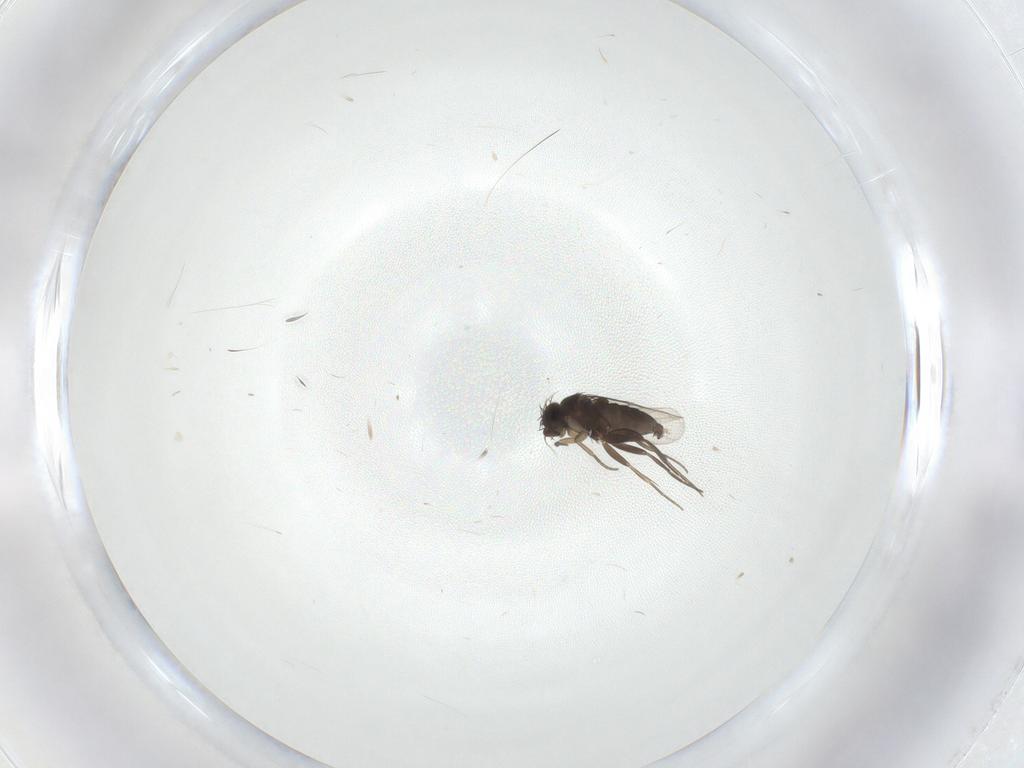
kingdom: Animalia
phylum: Arthropoda
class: Insecta
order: Diptera
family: Phoridae
